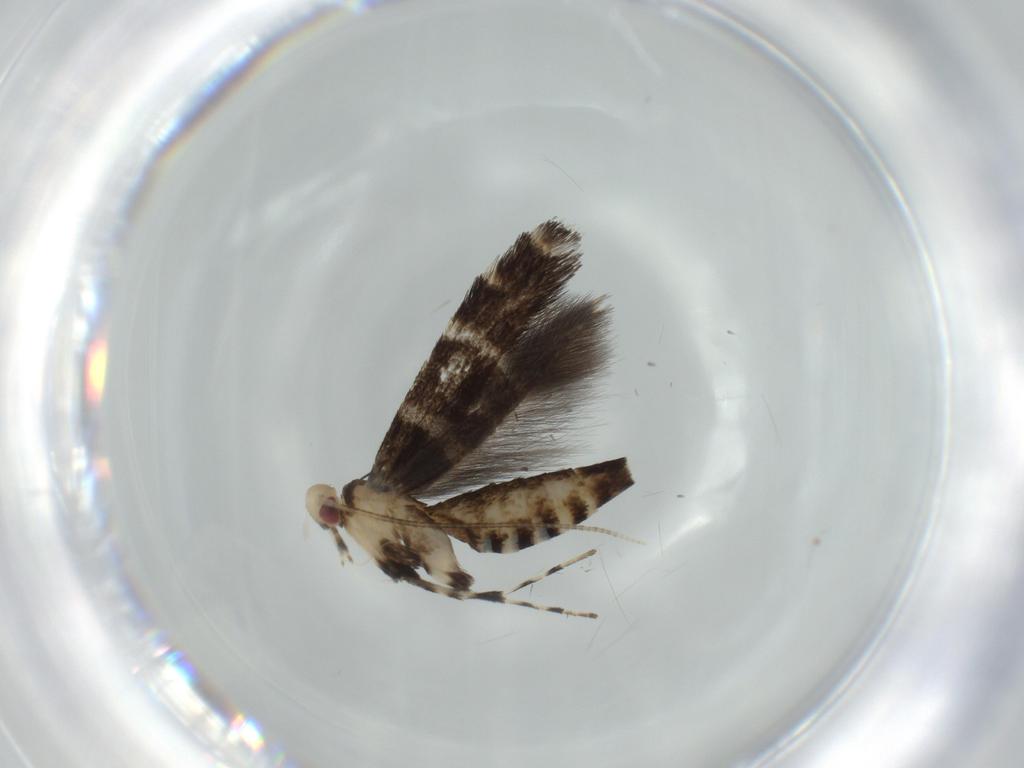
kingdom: Animalia
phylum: Arthropoda
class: Insecta
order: Lepidoptera
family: Gracillariidae
